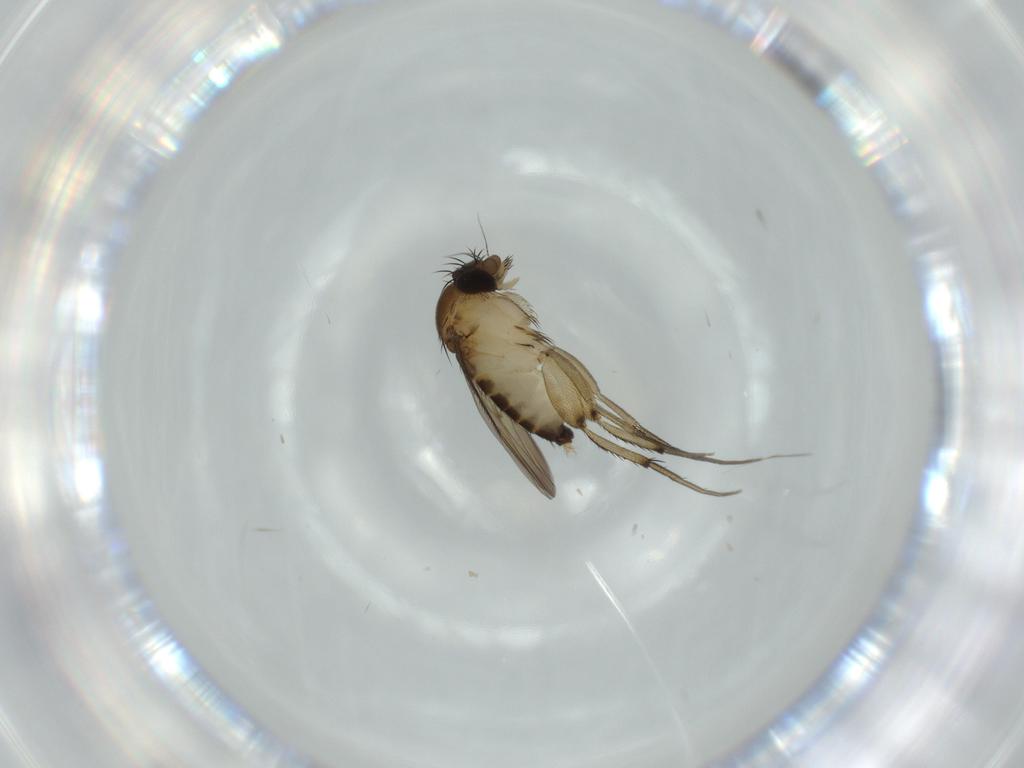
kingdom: Animalia
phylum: Arthropoda
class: Insecta
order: Diptera
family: Phoridae
